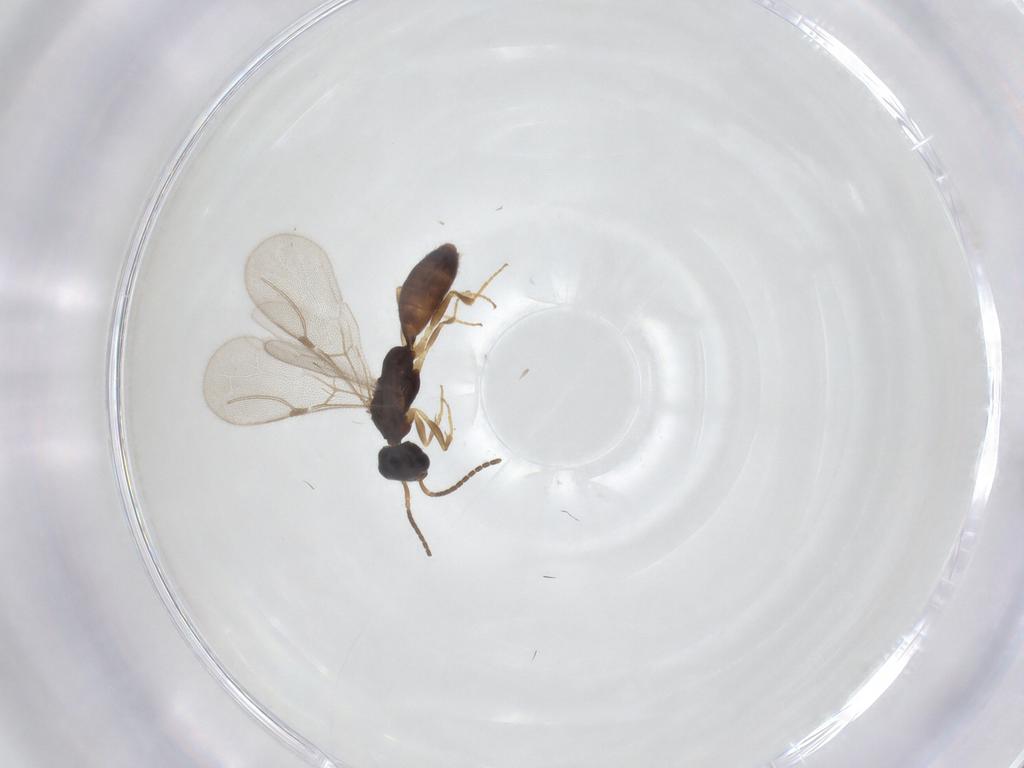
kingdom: Animalia
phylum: Arthropoda
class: Insecta
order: Hymenoptera
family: Bethylidae
